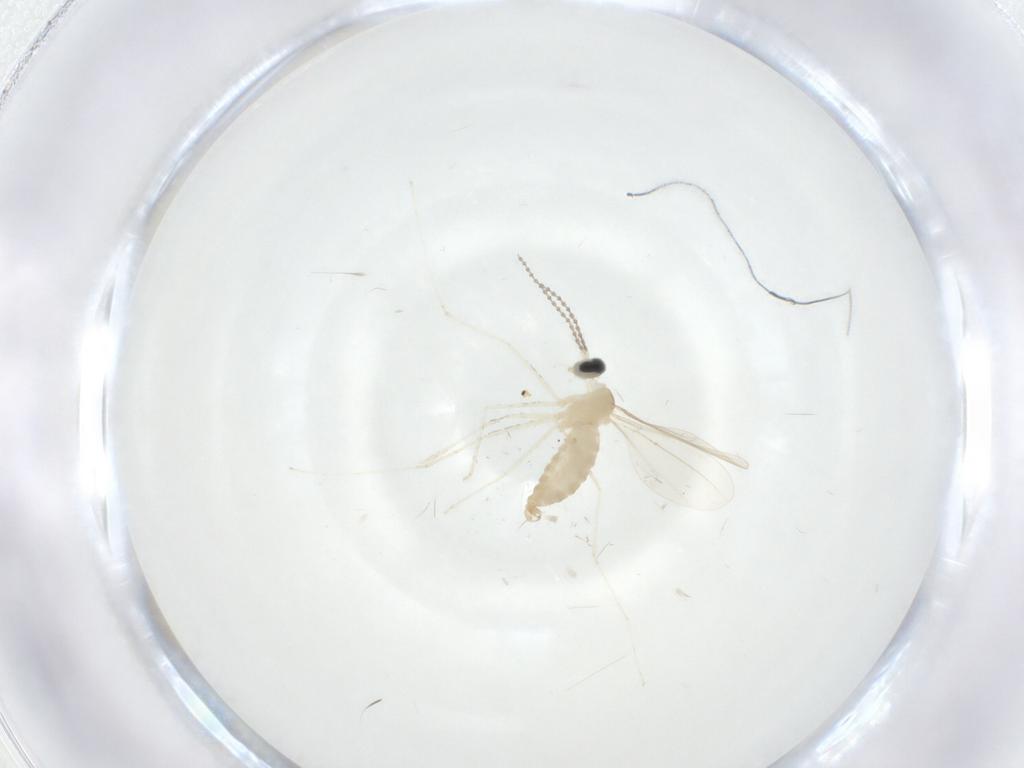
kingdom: Animalia
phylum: Arthropoda
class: Insecta
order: Diptera
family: Cecidomyiidae
